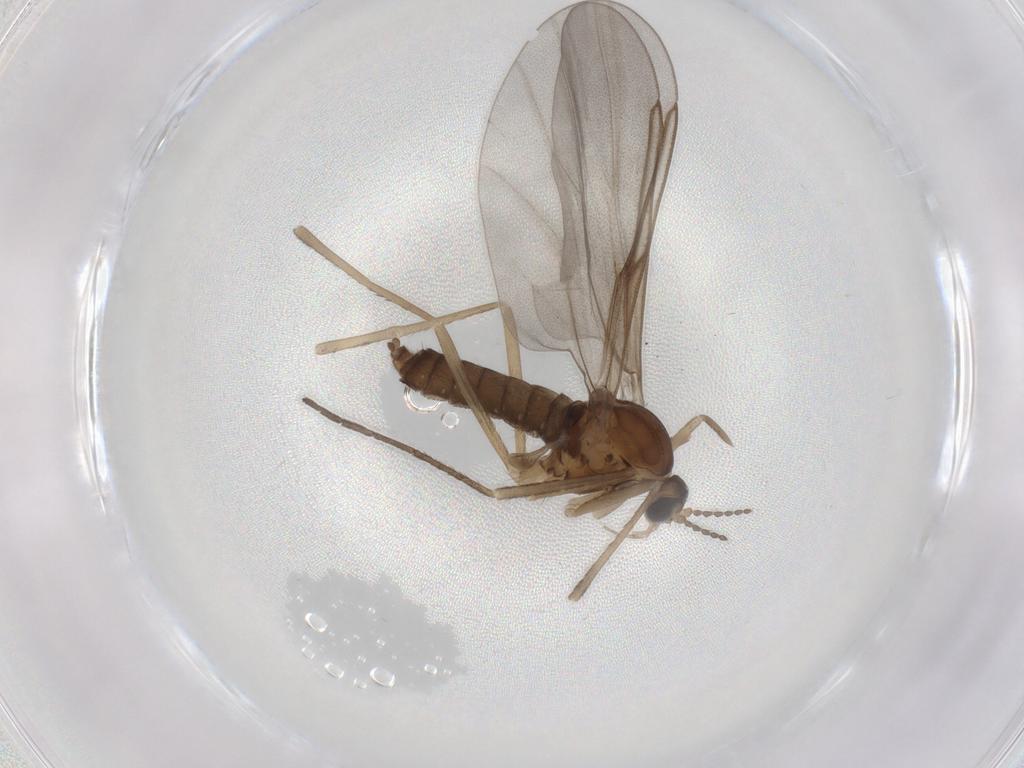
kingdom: Animalia
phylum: Arthropoda
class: Insecta
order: Diptera
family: Cecidomyiidae
